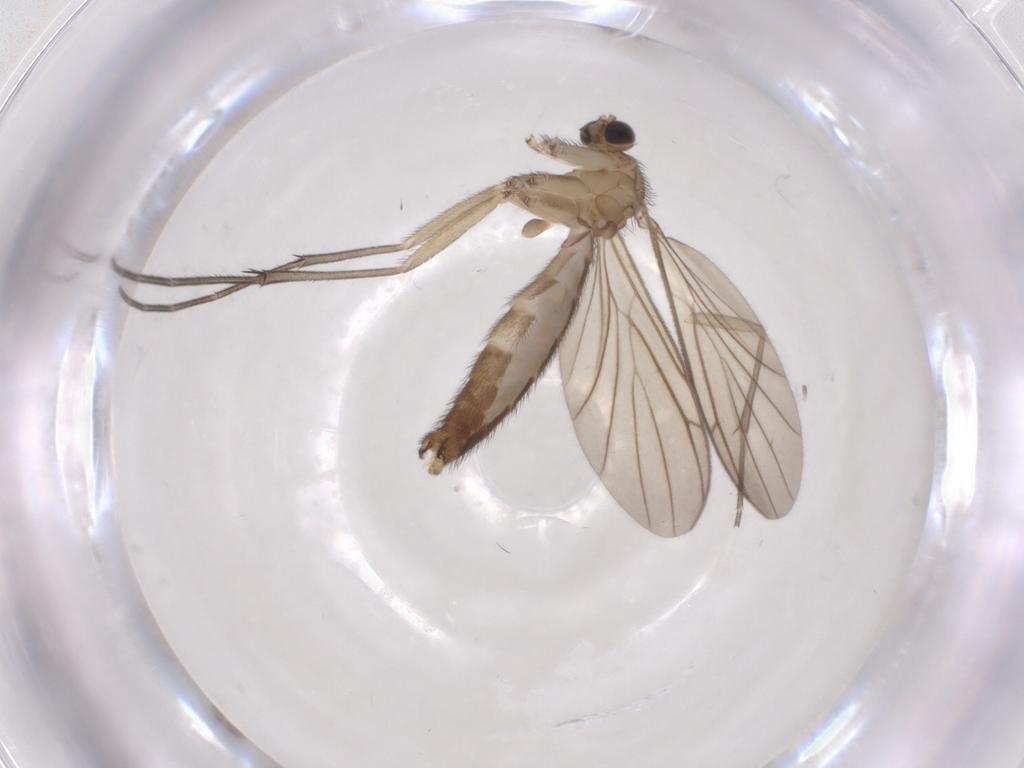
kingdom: Animalia
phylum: Arthropoda
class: Insecta
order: Diptera
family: Keroplatidae
